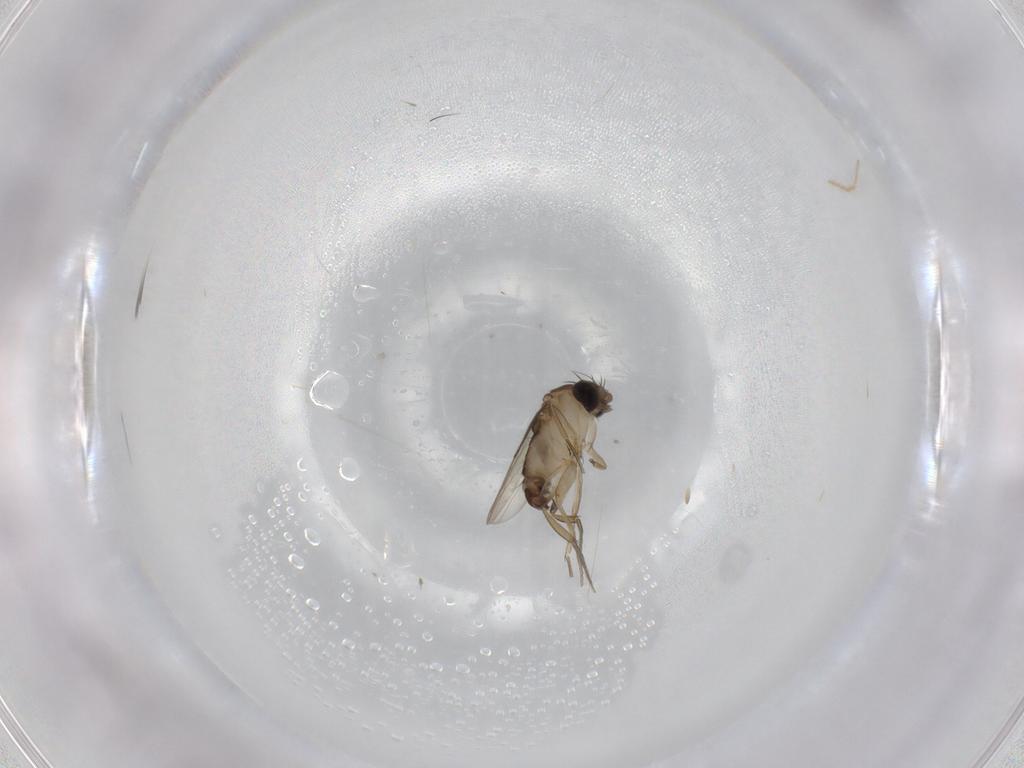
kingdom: Animalia
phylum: Arthropoda
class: Insecta
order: Diptera
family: Phoridae
